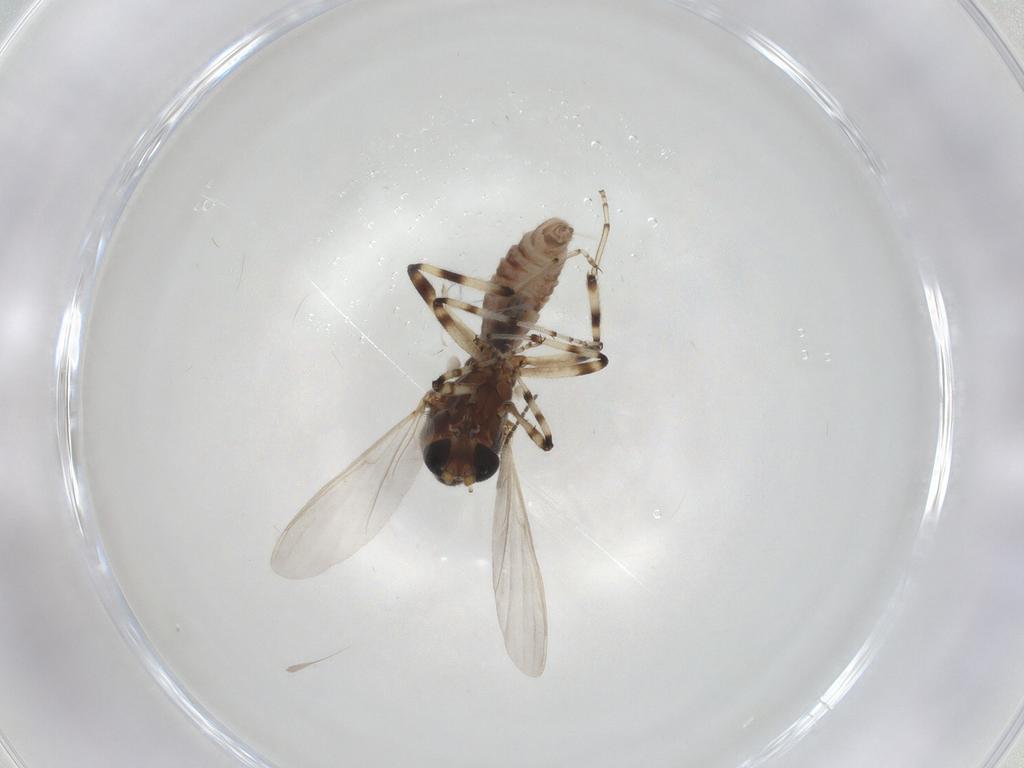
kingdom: Animalia
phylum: Arthropoda
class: Insecta
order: Diptera
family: Ceratopogonidae
